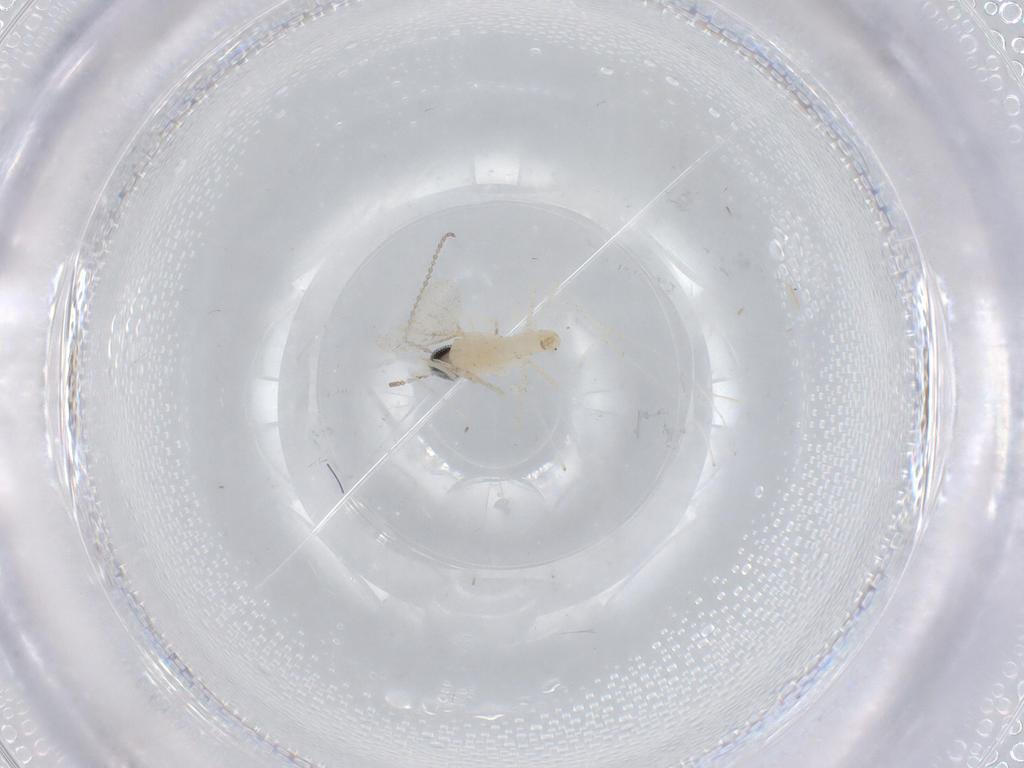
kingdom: Animalia
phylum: Arthropoda
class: Insecta
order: Diptera
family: Cecidomyiidae
